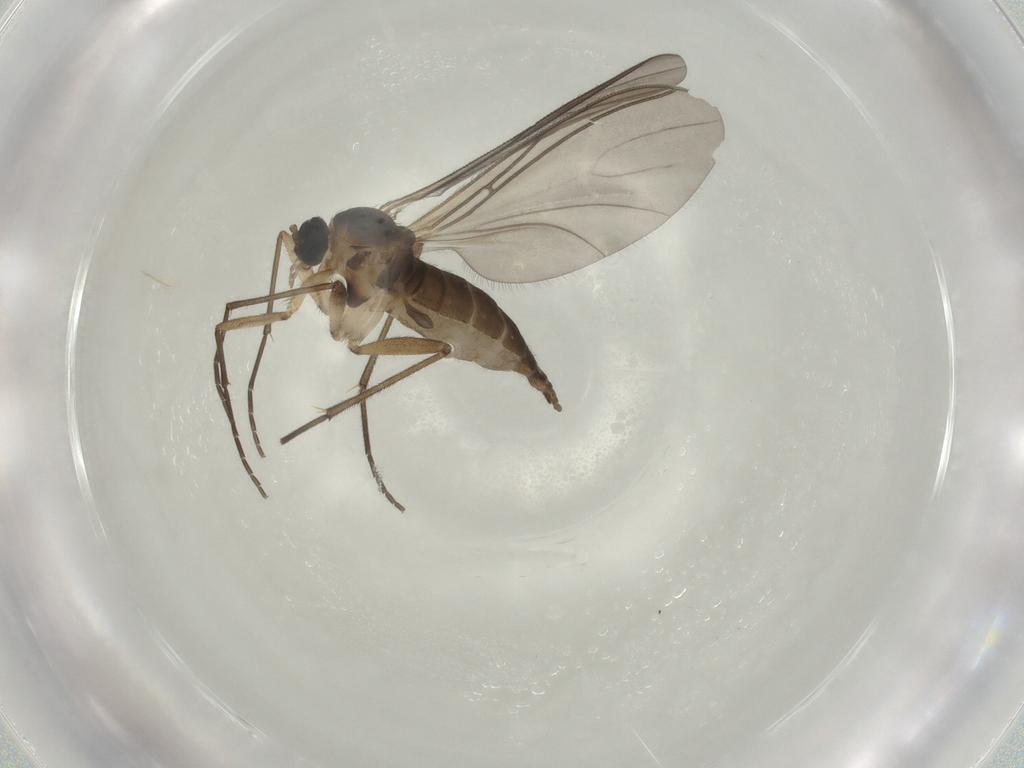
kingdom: Animalia
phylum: Arthropoda
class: Insecta
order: Diptera
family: Sciaridae
